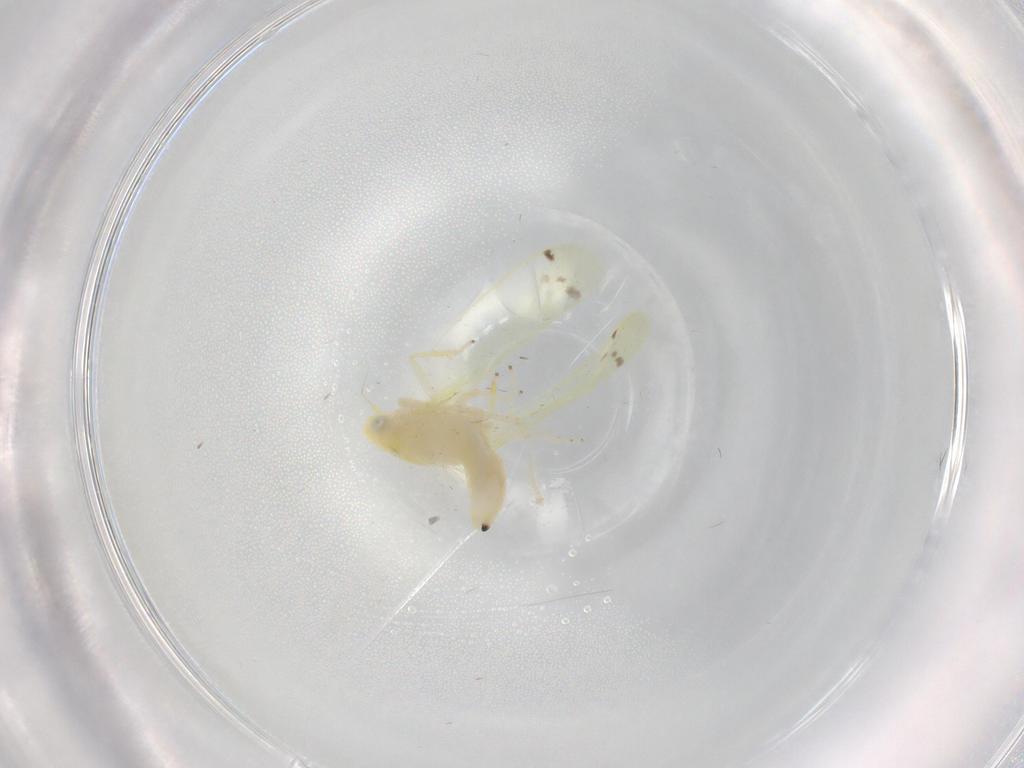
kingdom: Animalia
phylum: Arthropoda
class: Insecta
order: Hemiptera
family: Cicadellidae
